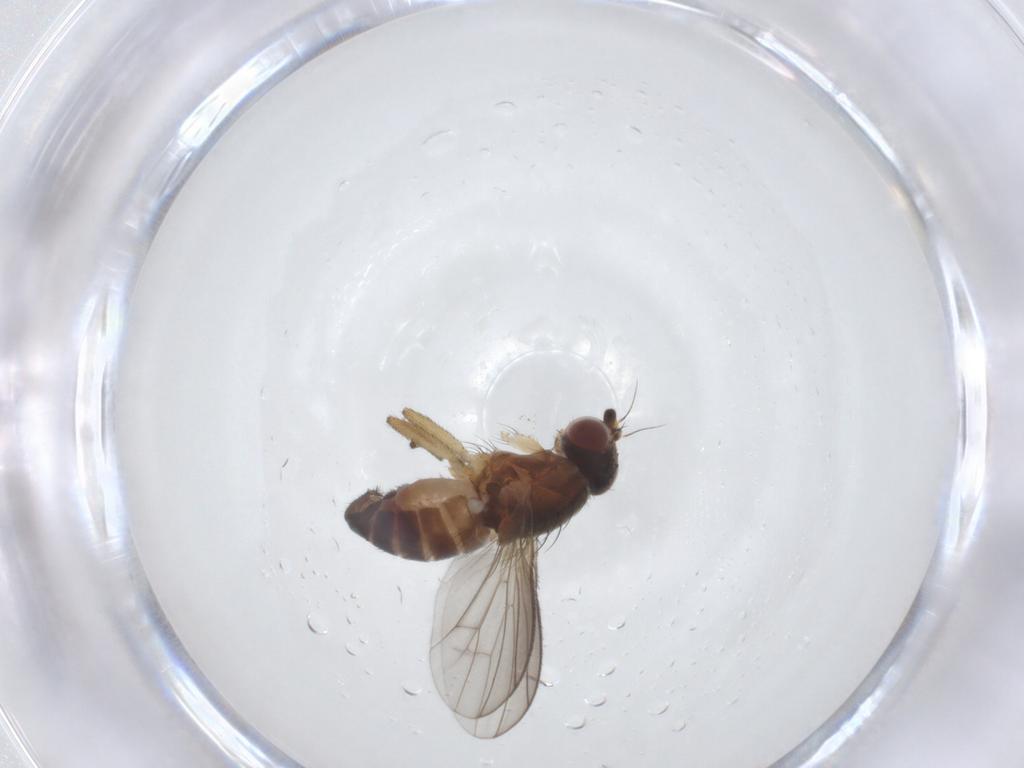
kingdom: Animalia
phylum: Arthropoda
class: Insecta
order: Diptera
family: Heleomyzidae
